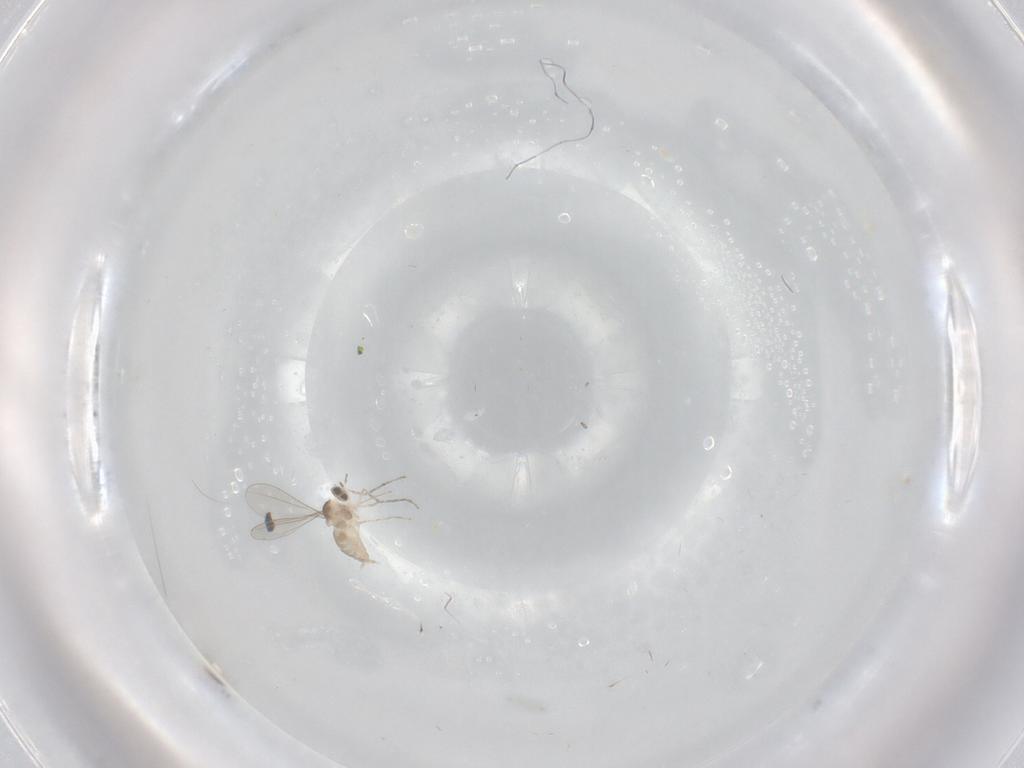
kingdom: Animalia
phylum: Arthropoda
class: Insecta
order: Diptera
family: Cecidomyiidae
